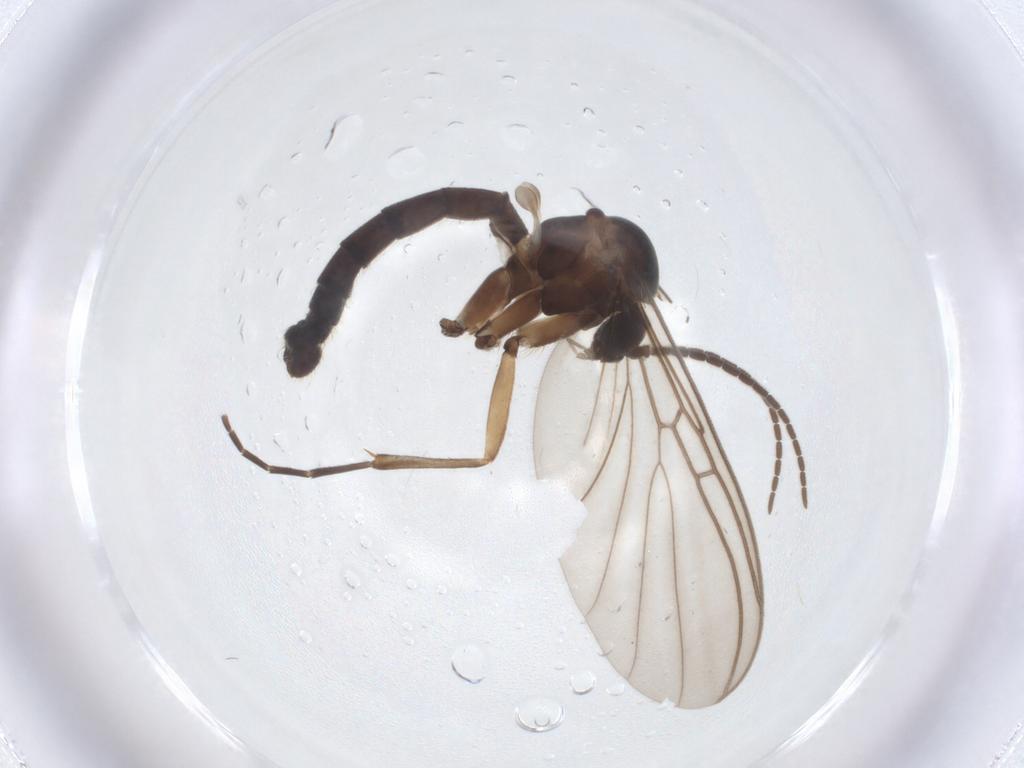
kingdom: Animalia
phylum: Arthropoda
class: Insecta
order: Diptera
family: Mycetophilidae
